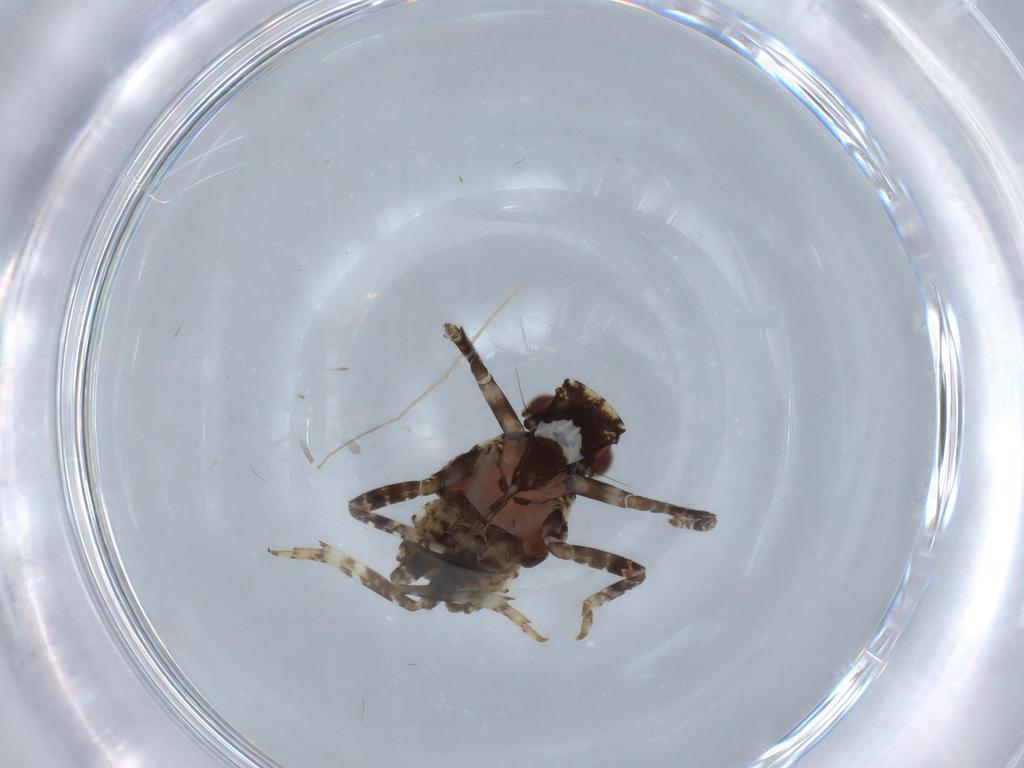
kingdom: Animalia
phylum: Arthropoda
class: Insecta
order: Hemiptera
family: Fulgoridae
